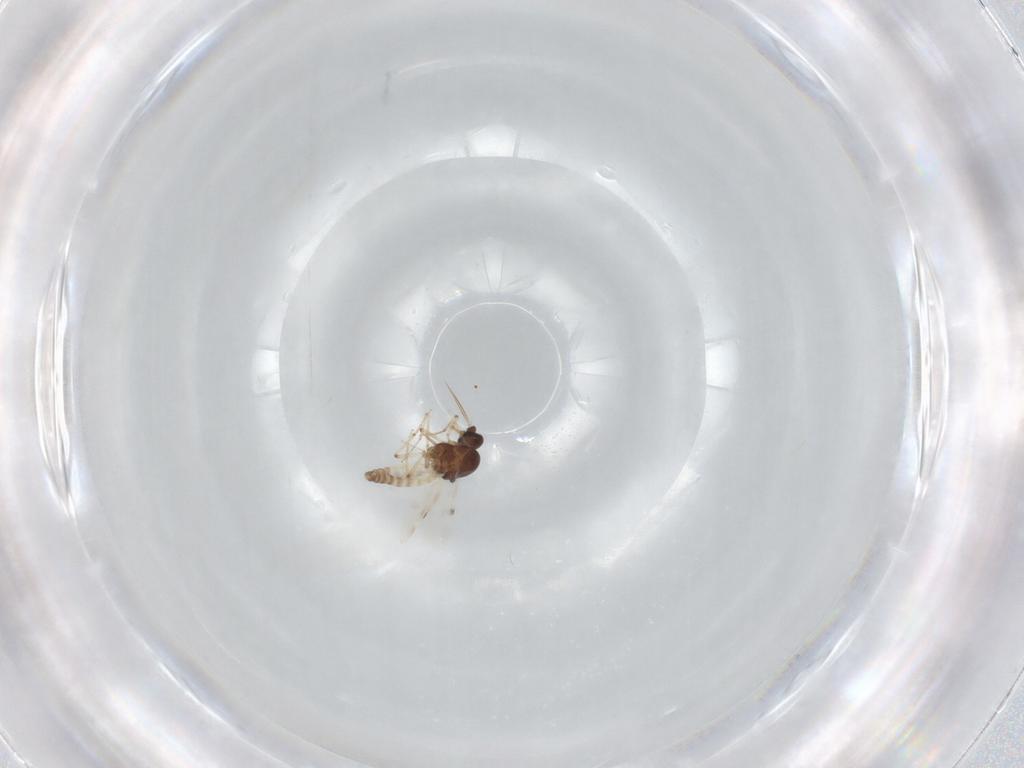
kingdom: Animalia
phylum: Arthropoda
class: Insecta
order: Diptera
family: Ceratopogonidae
